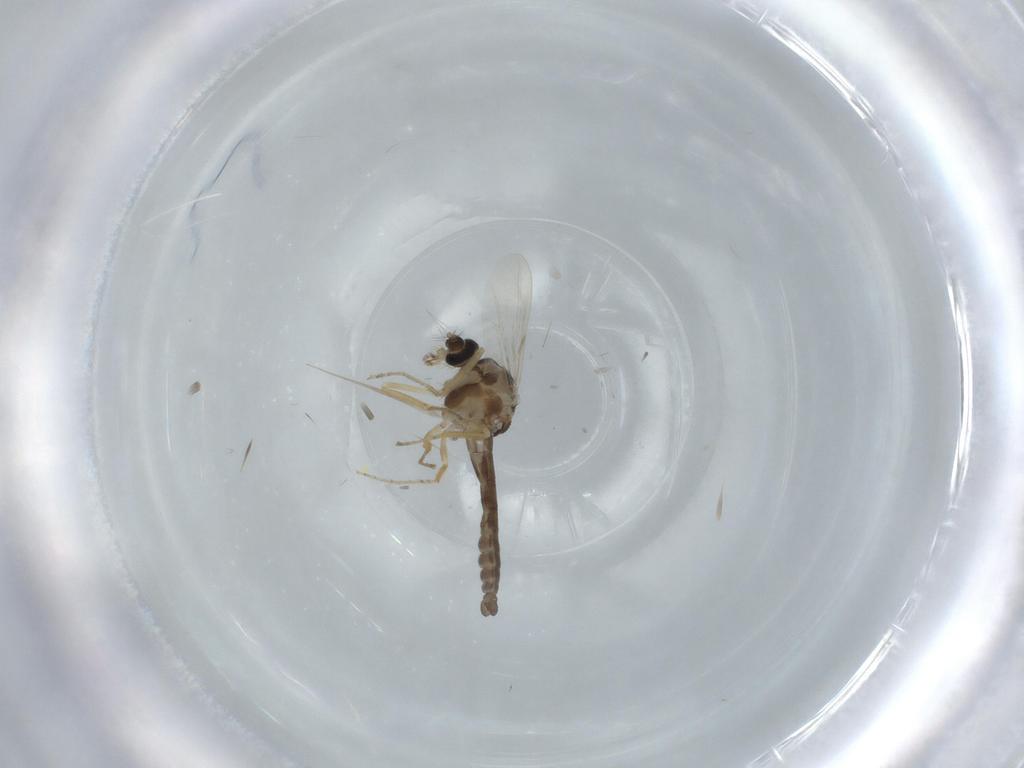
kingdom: Animalia
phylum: Arthropoda
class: Insecta
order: Diptera
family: Ceratopogonidae
